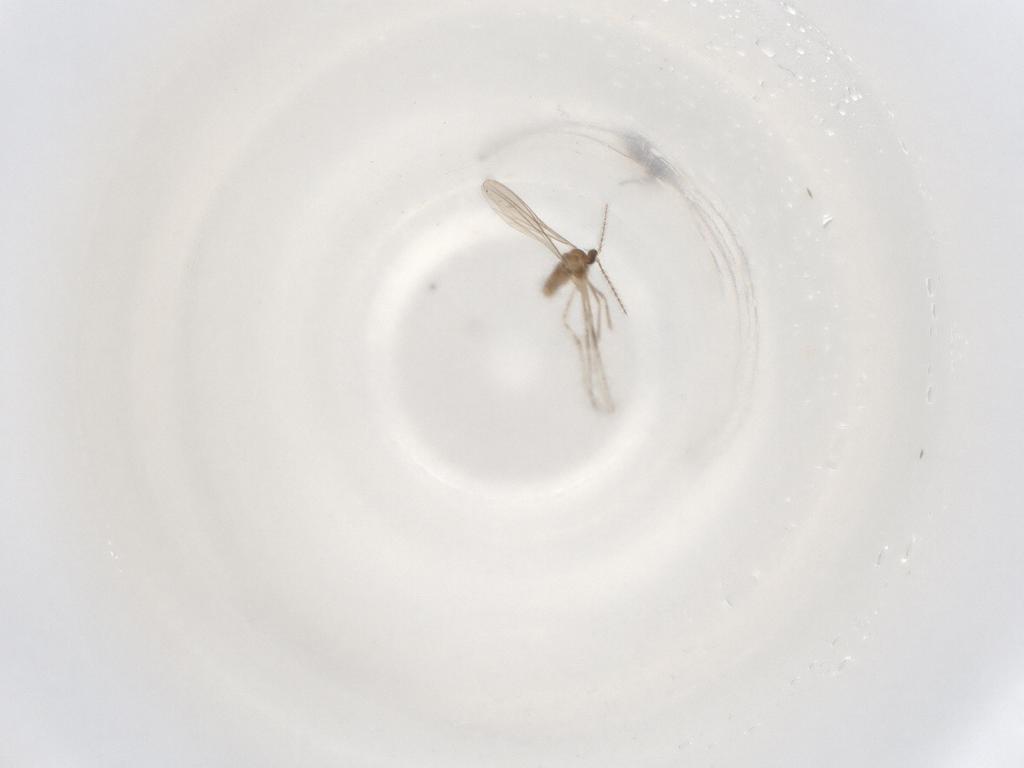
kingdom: Animalia
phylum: Arthropoda
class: Insecta
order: Diptera
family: Cecidomyiidae
